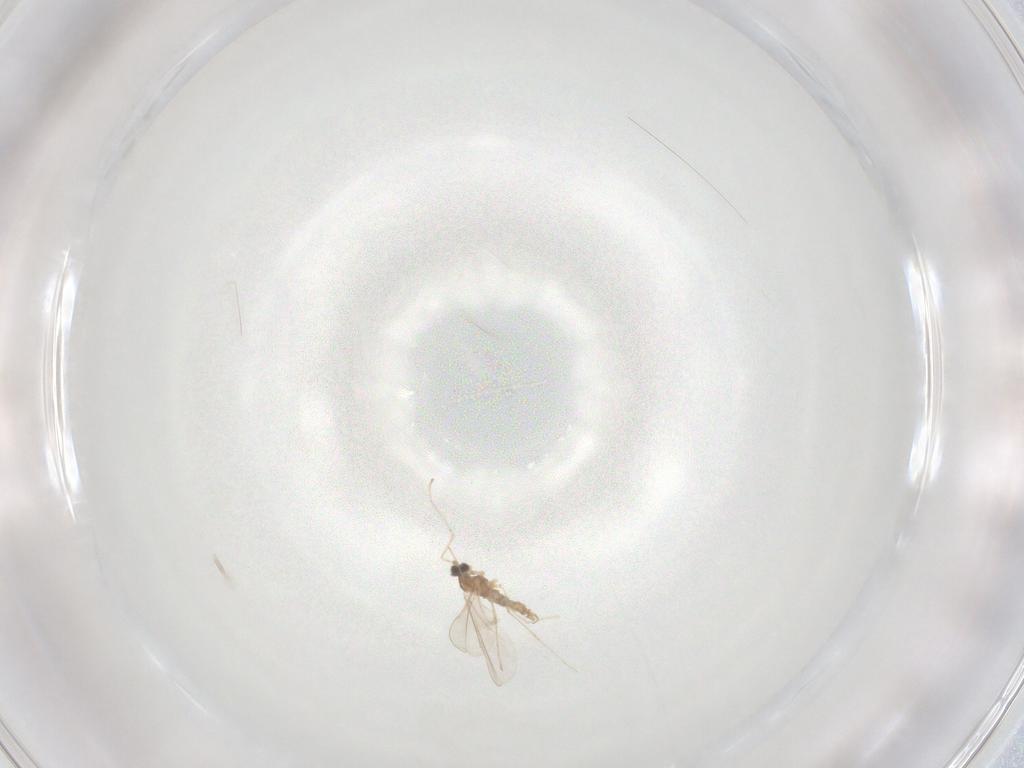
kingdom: Animalia
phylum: Arthropoda
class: Insecta
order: Diptera
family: Cecidomyiidae
